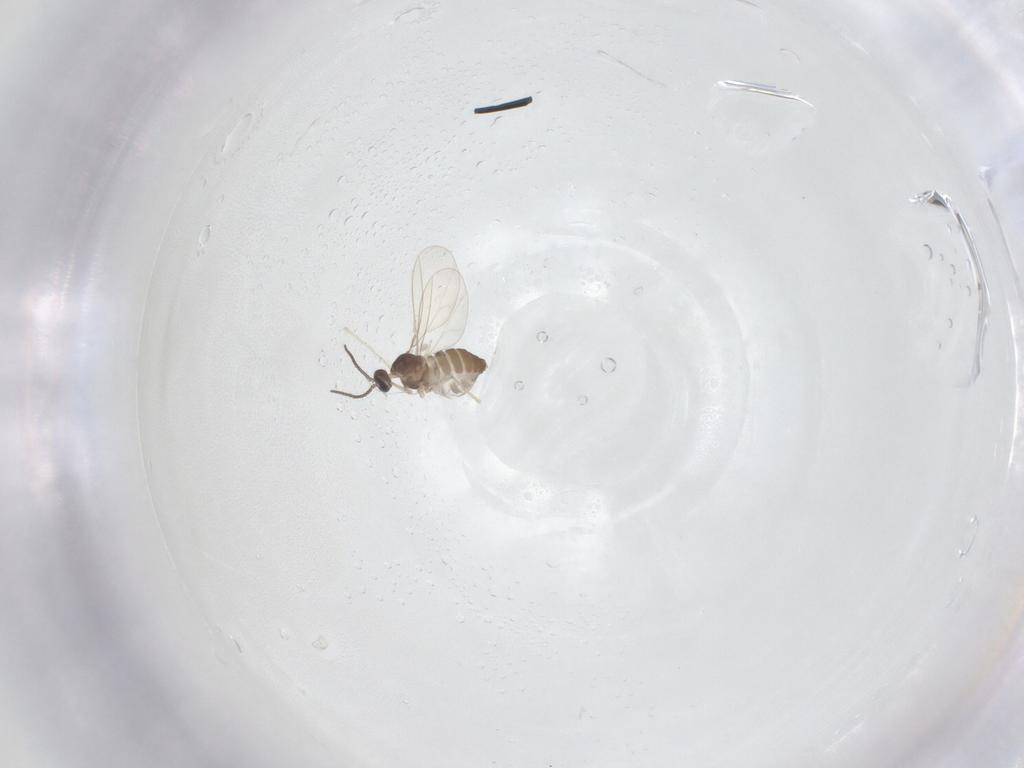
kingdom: Animalia
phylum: Arthropoda
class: Insecta
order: Diptera
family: Cecidomyiidae
